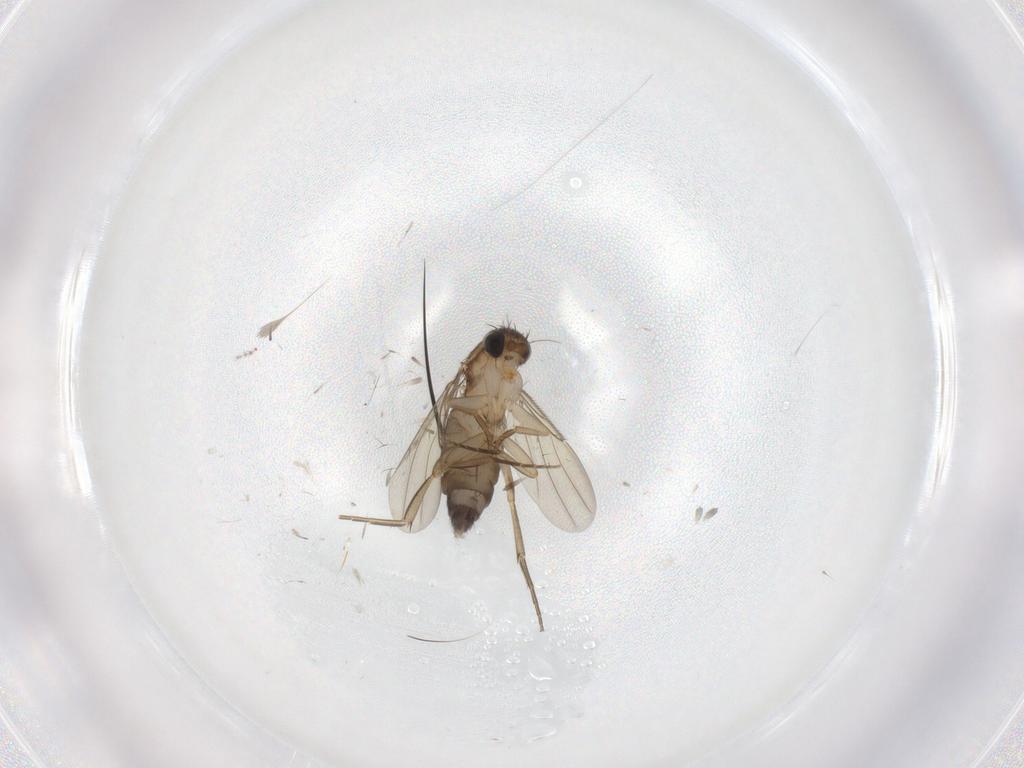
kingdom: Animalia
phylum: Arthropoda
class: Insecta
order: Diptera
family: Phoridae
